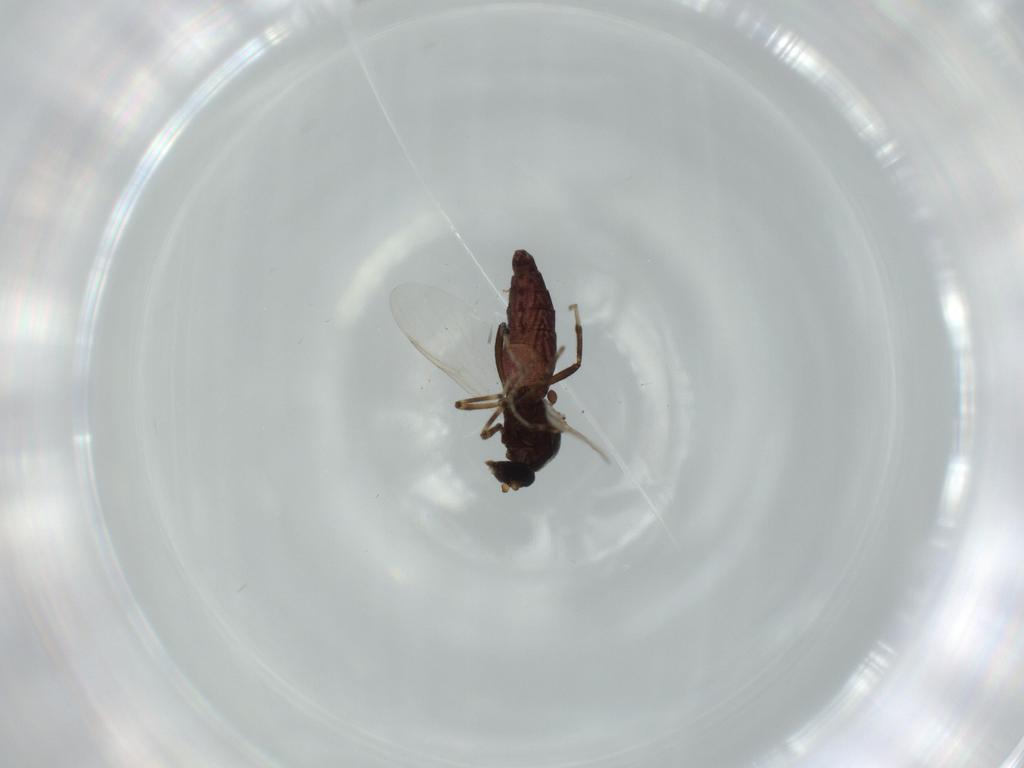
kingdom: Animalia
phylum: Arthropoda
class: Insecta
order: Diptera
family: Ceratopogonidae
